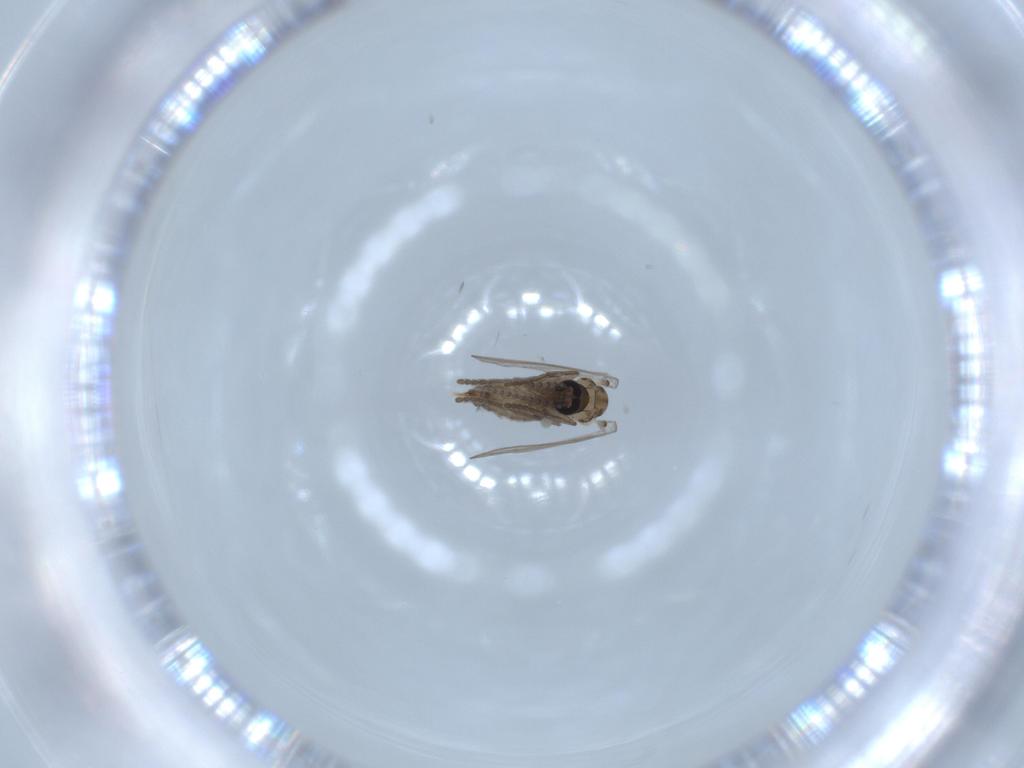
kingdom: Animalia
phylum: Arthropoda
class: Insecta
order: Diptera
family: Psychodidae
